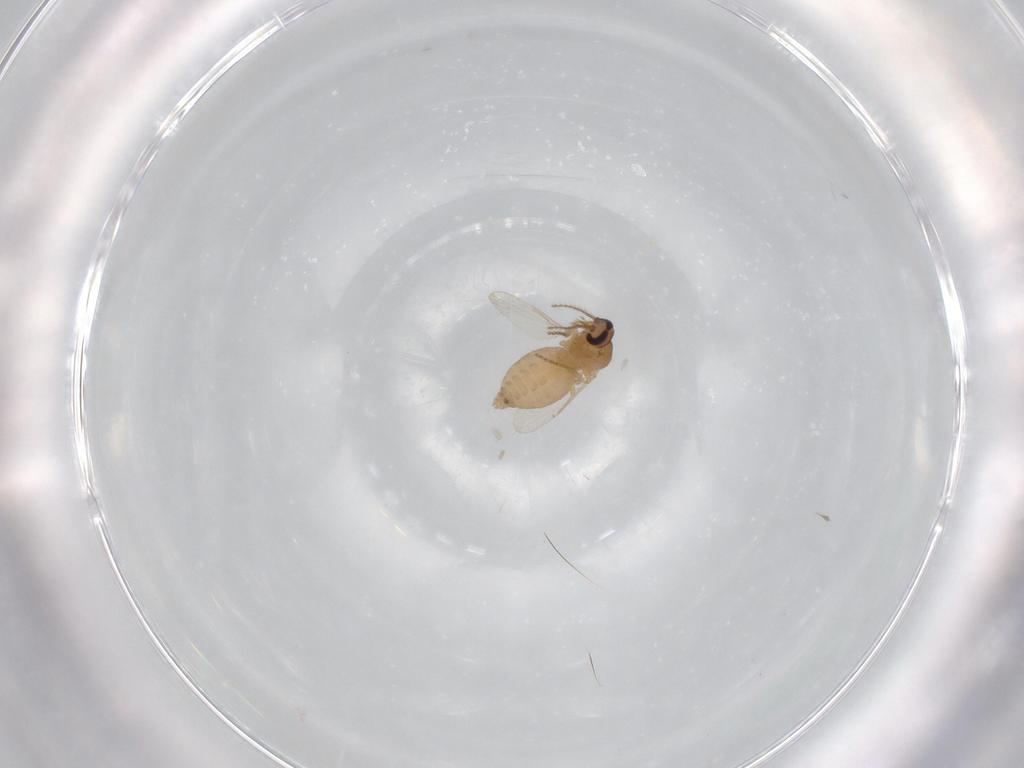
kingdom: Animalia
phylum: Arthropoda
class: Insecta
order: Diptera
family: Ceratopogonidae
